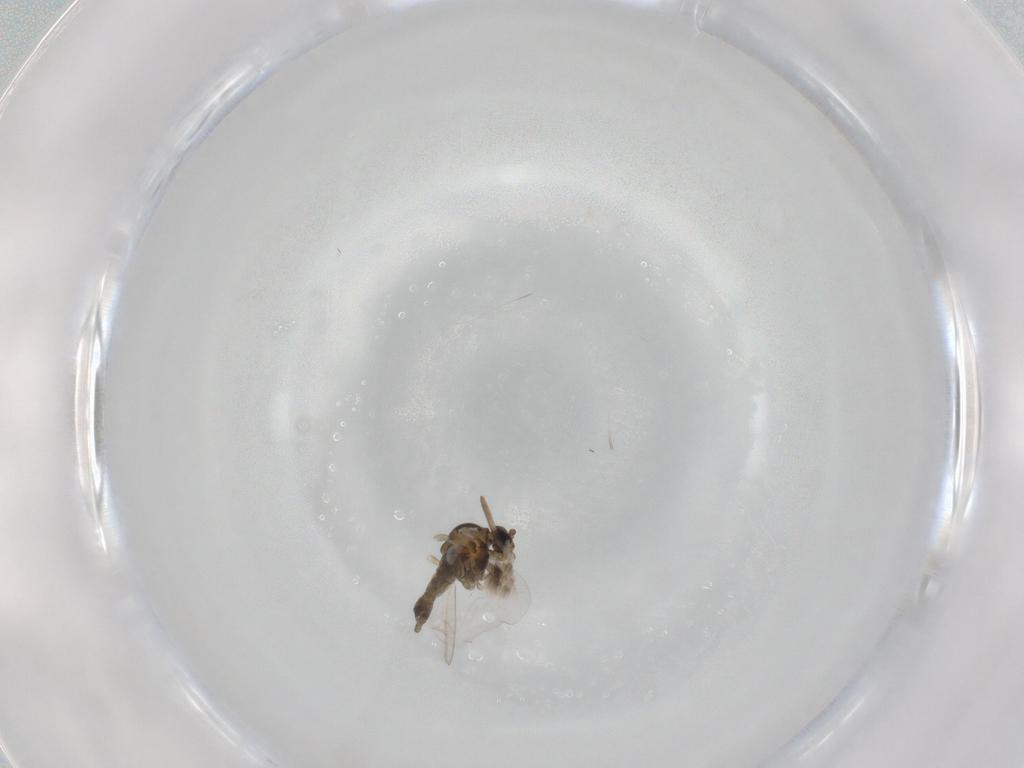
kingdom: Animalia
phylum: Arthropoda
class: Insecta
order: Diptera
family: Cecidomyiidae
